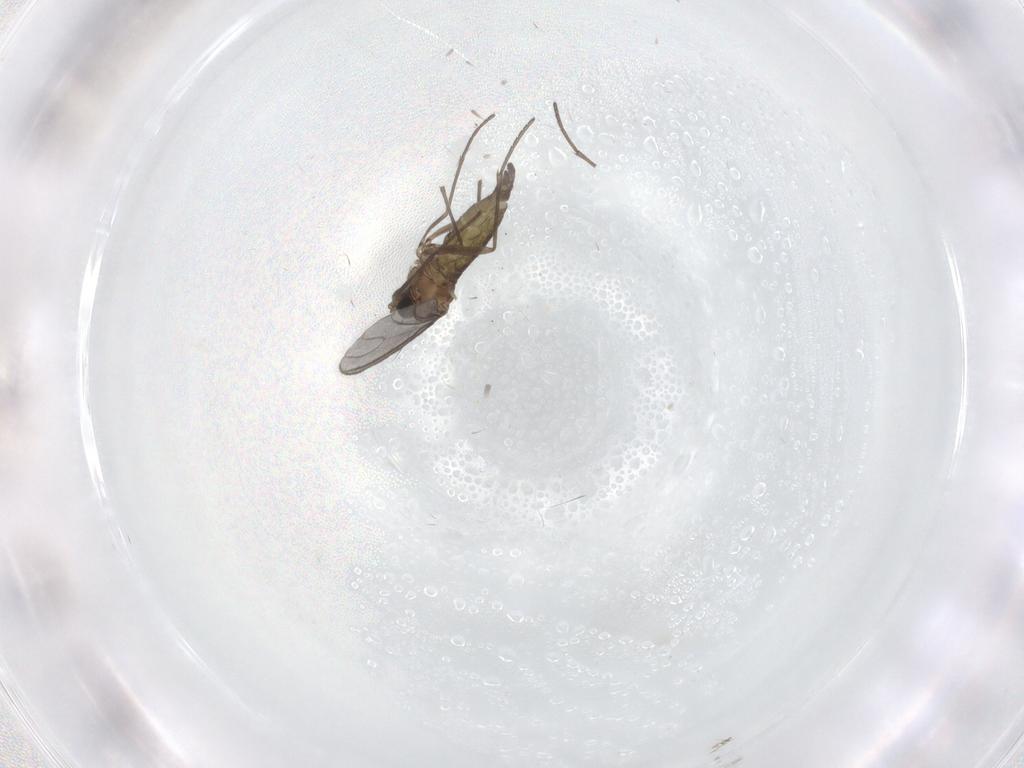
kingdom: Animalia
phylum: Arthropoda
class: Insecta
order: Diptera
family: Chironomidae
